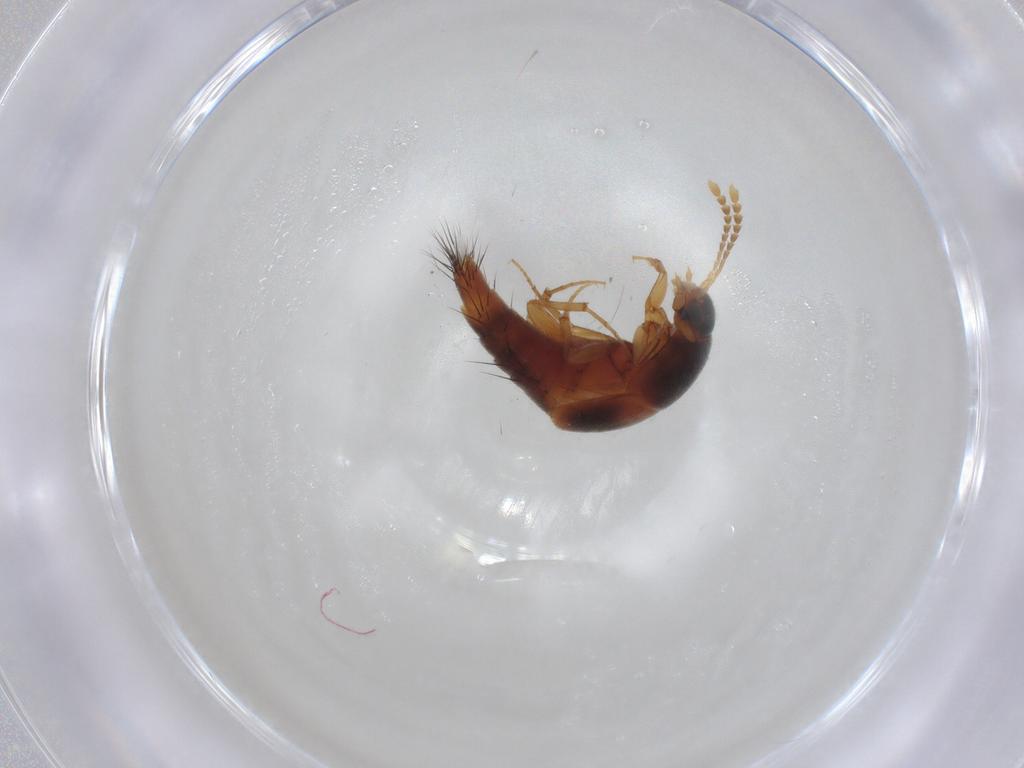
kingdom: Animalia
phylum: Arthropoda
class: Insecta
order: Coleoptera
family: Staphylinidae
